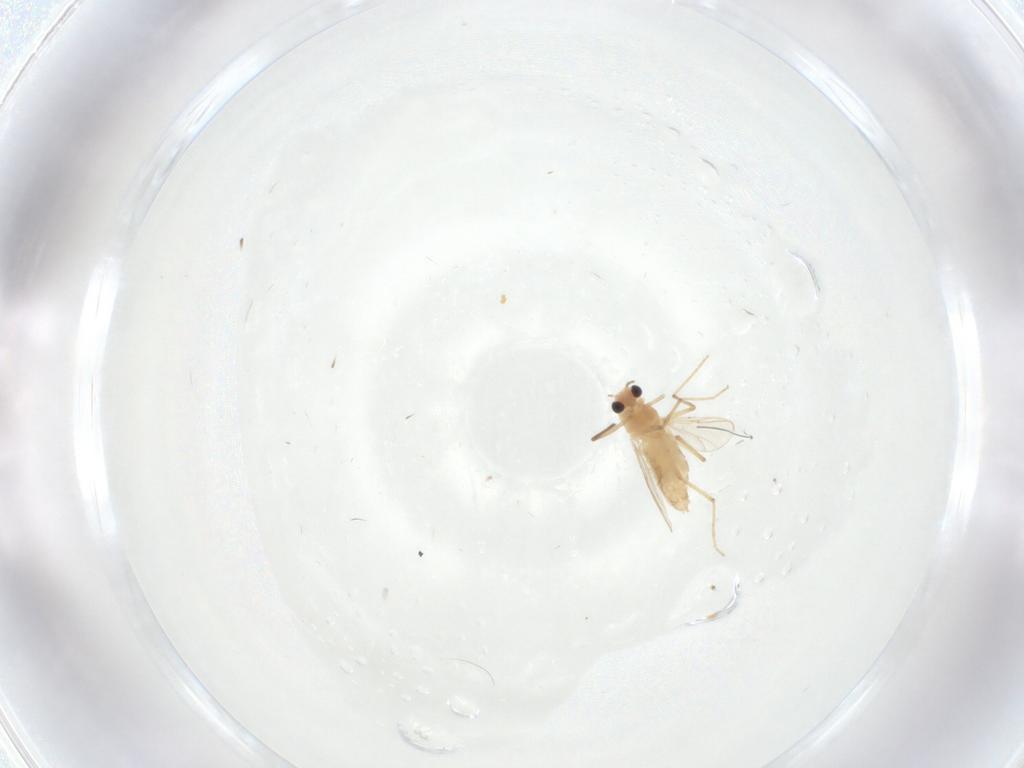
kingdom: Animalia
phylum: Arthropoda
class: Insecta
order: Diptera
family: Chironomidae
